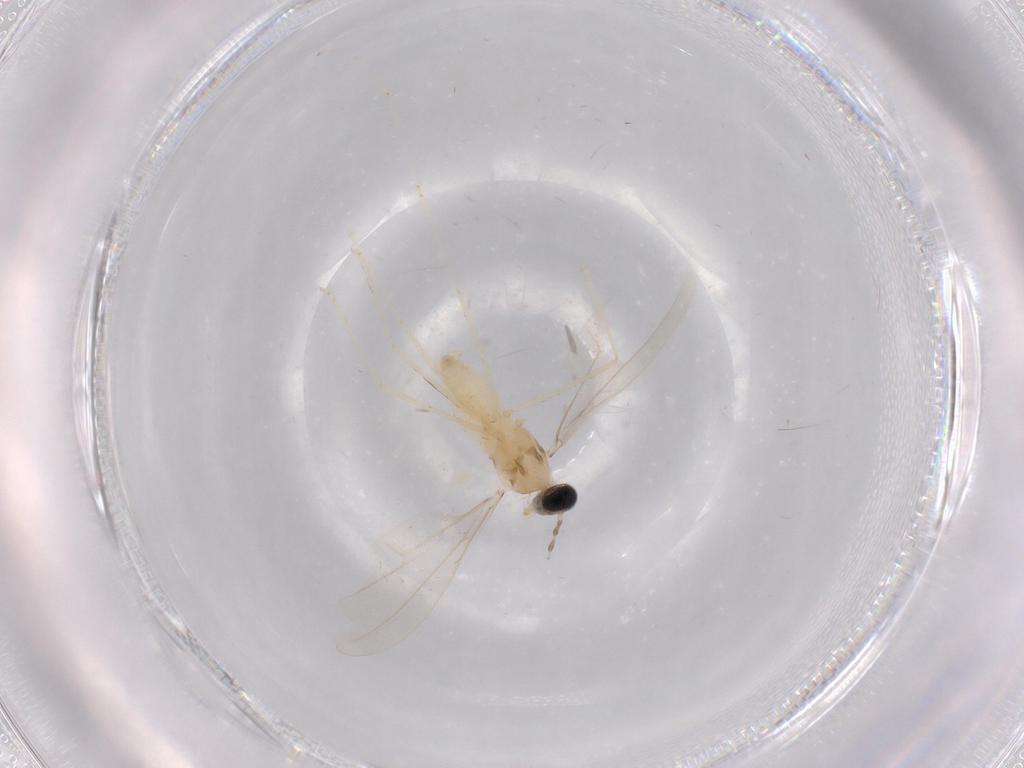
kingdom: Animalia
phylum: Arthropoda
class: Insecta
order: Diptera
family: Cecidomyiidae
